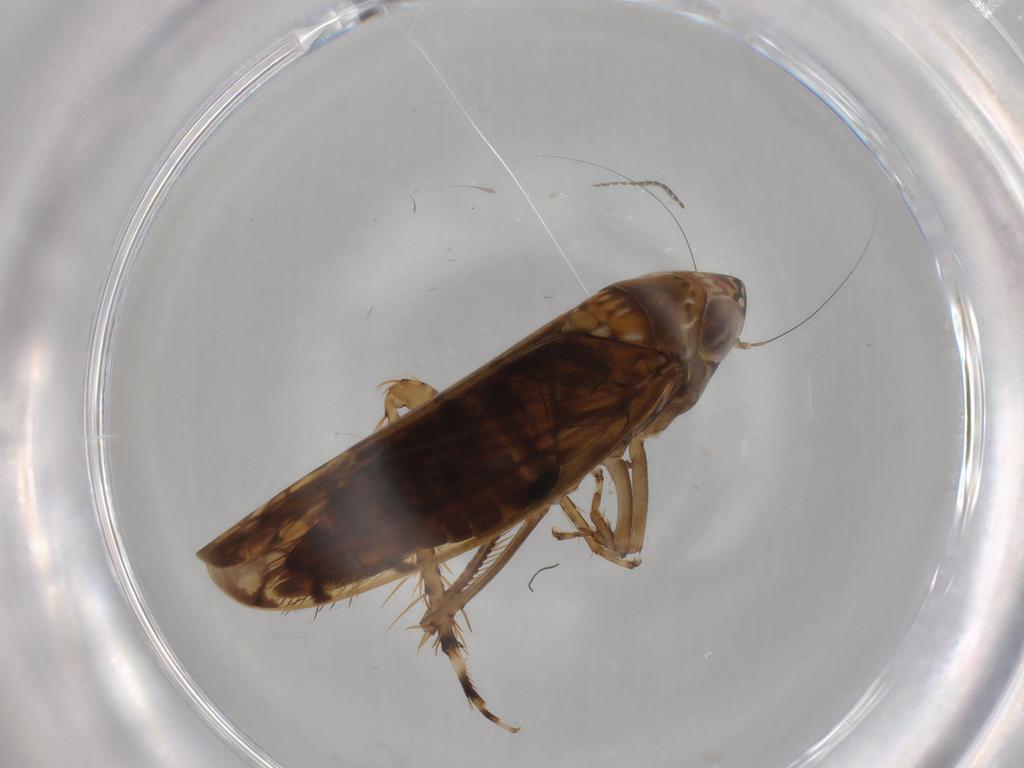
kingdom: Animalia
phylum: Arthropoda
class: Insecta
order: Hemiptera
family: Cicadellidae
